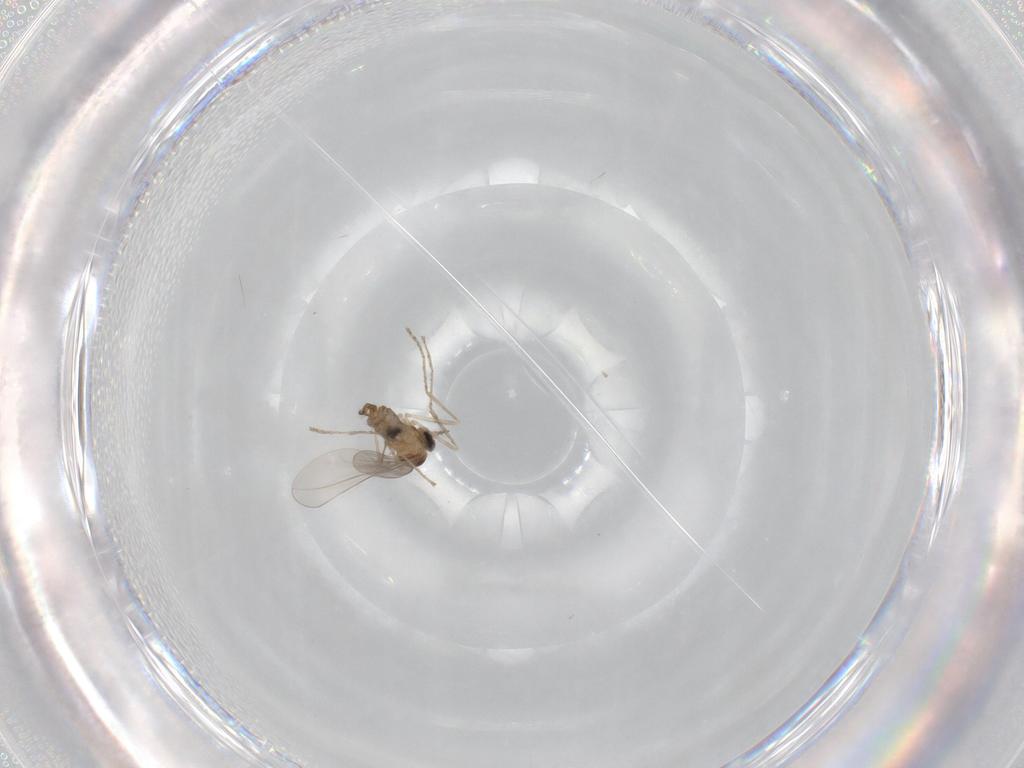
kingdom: Animalia
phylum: Arthropoda
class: Insecta
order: Diptera
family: Cecidomyiidae
